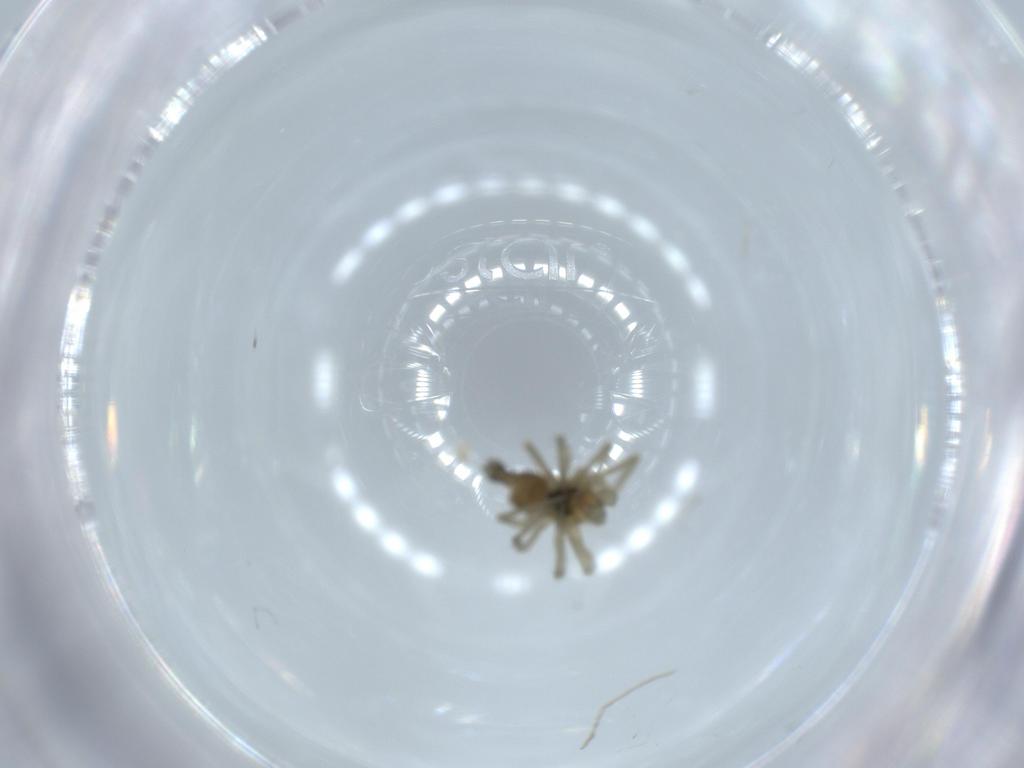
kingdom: Animalia
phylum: Arthropoda
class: Arachnida
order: Araneae
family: Linyphiidae
